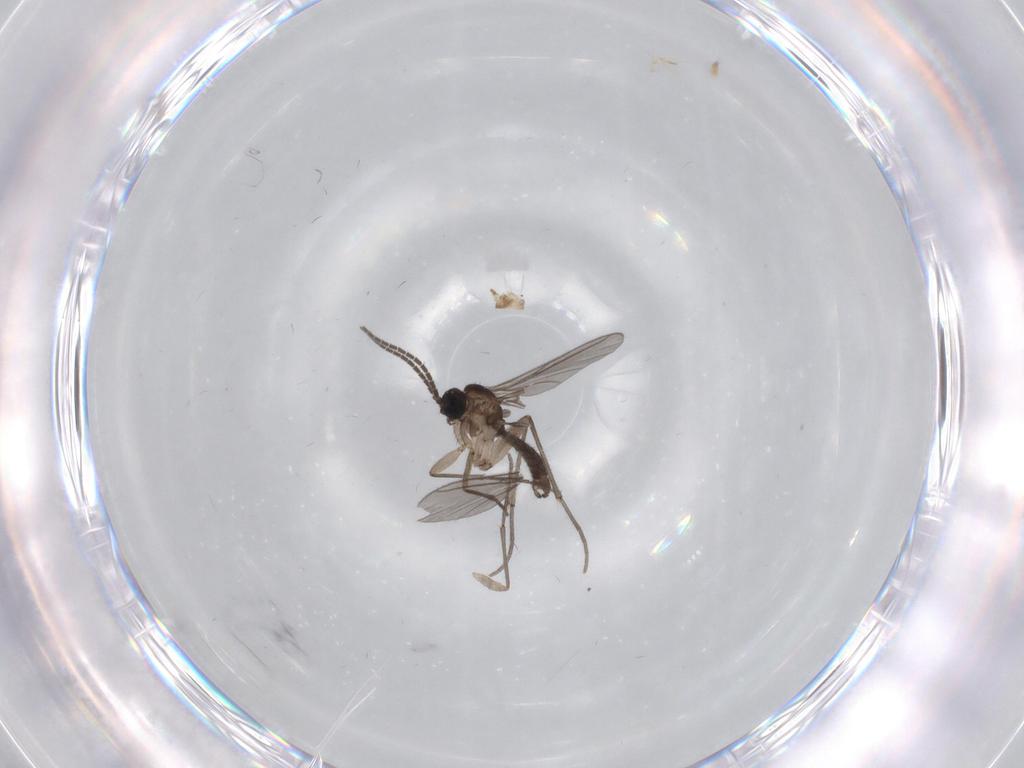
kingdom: Animalia
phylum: Arthropoda
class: Insecta
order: Diptera
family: Sciaridae
